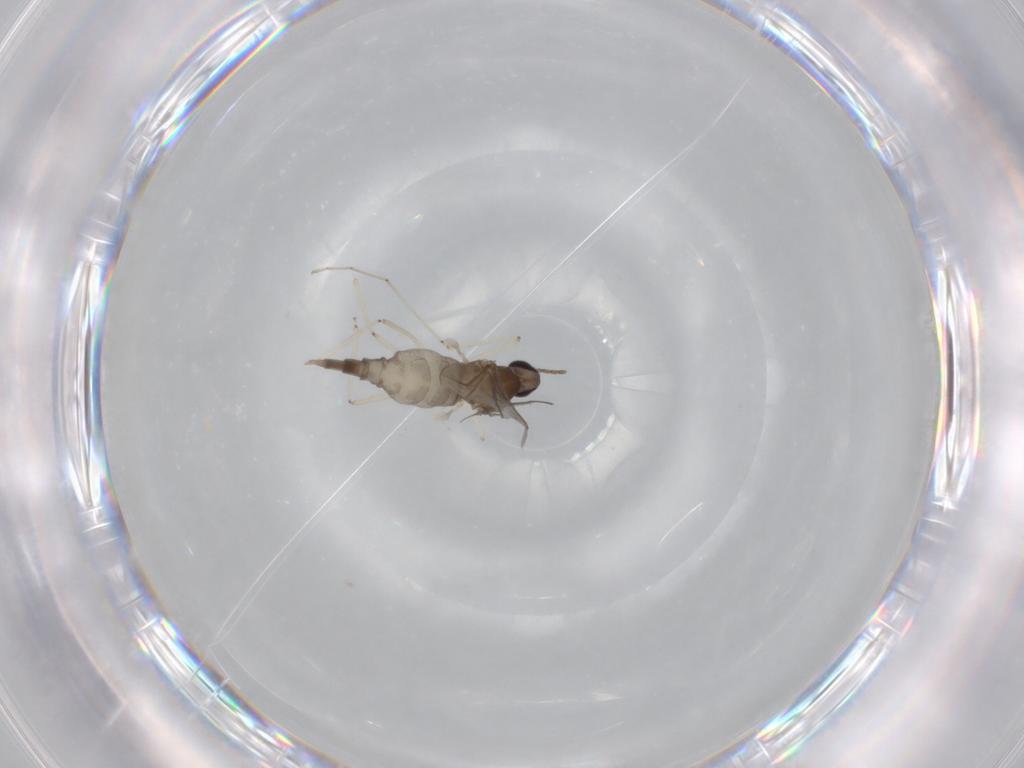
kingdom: Animalia
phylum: Arthropoda
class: Insecta
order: Diptera
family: Cecidomyiidae
